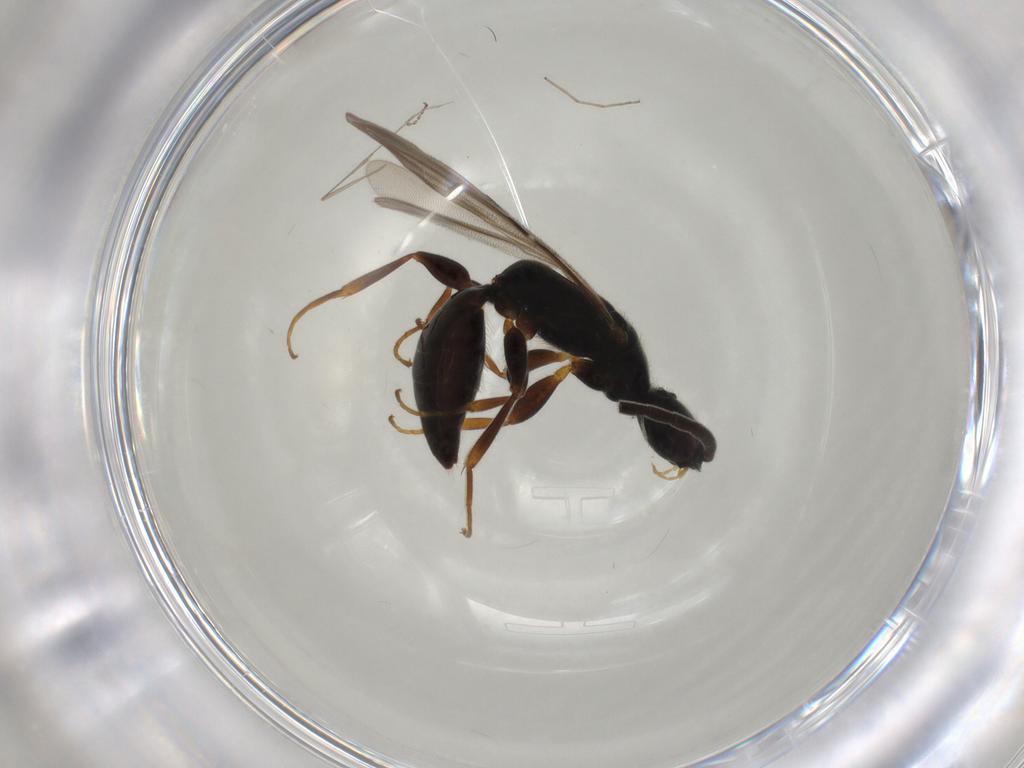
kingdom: Animalia
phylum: Arthropoda
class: Insecta
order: Hymenoptera
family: Bethylidae
